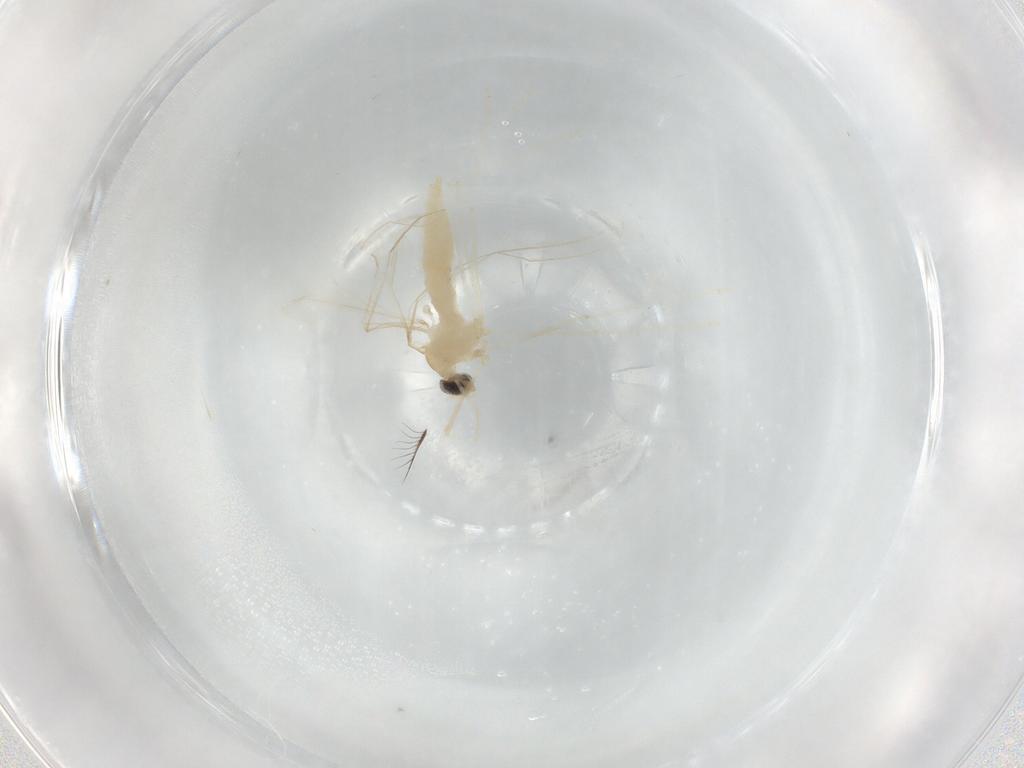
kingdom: Animalia
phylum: Arthropoda
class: Insecta
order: Diptera
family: Cecidomyiidae
